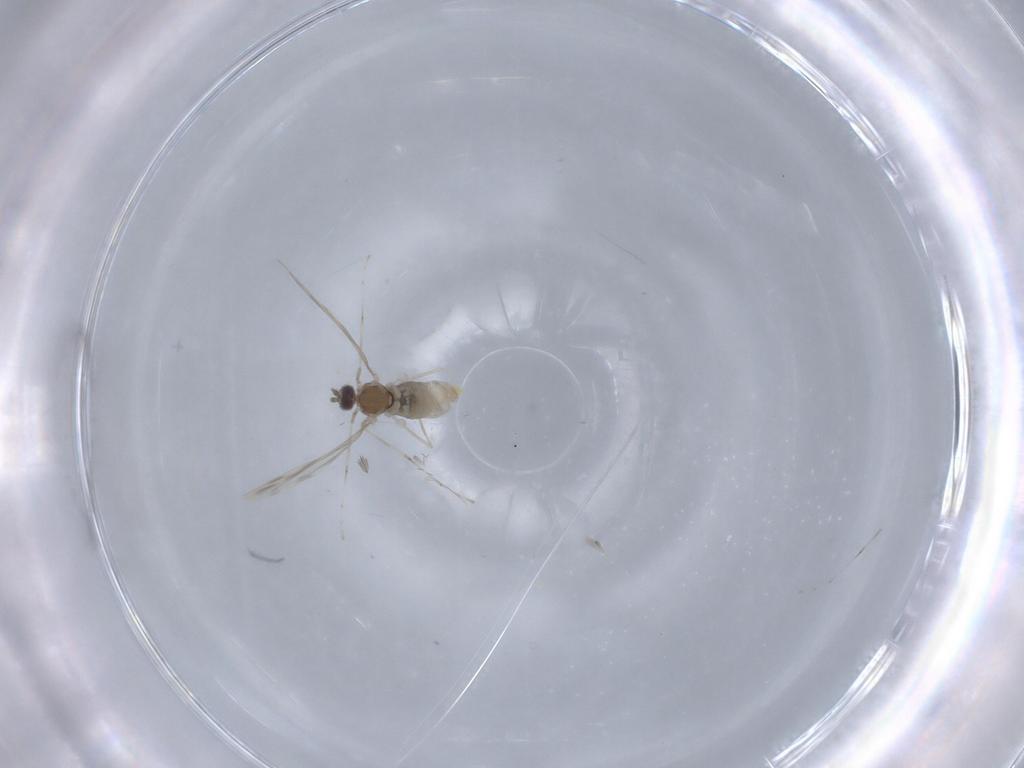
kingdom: Animalia
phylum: Arthropoda
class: Insecta
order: Diptera
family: Cecidomyiidae
